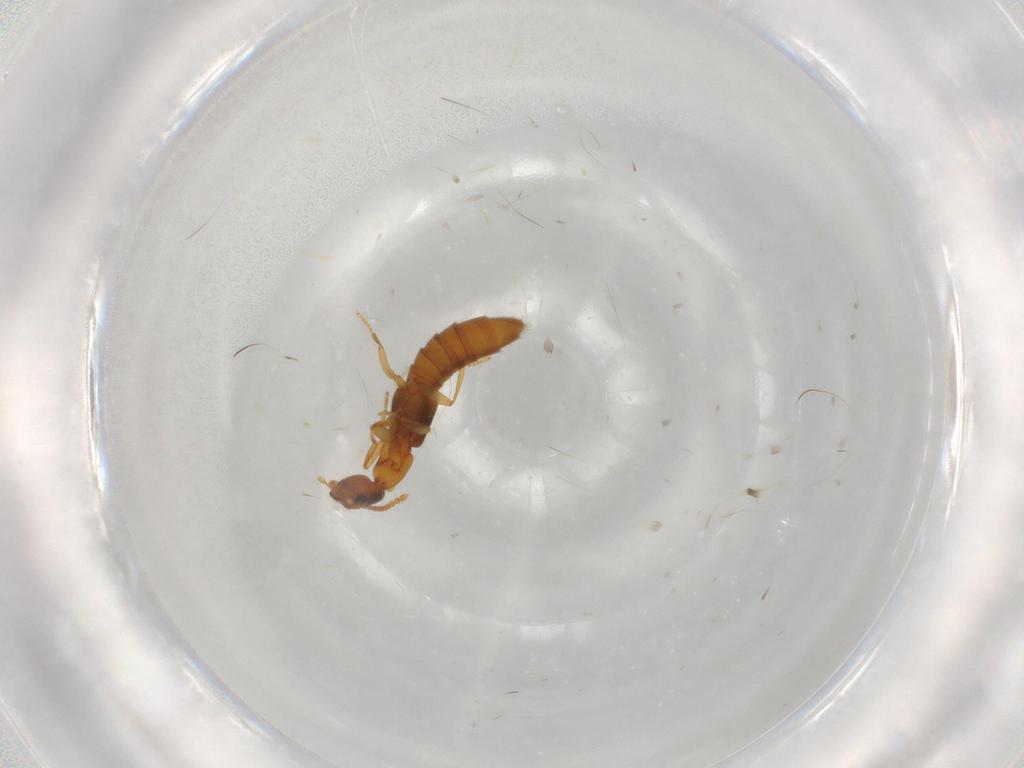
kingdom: Animalia
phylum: Arthropoda
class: Insecta
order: Coleoptera
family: Staphylinidae
